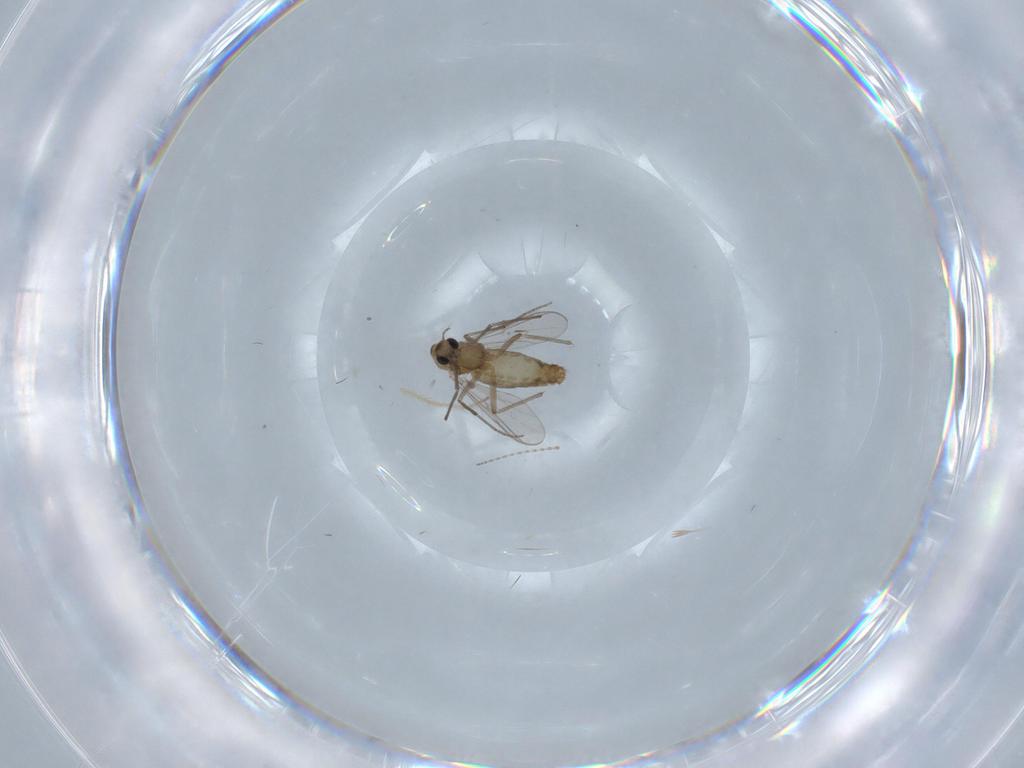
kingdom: Animalia
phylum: Arthropoda
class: Insecta
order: Diptera
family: Chironomidae
